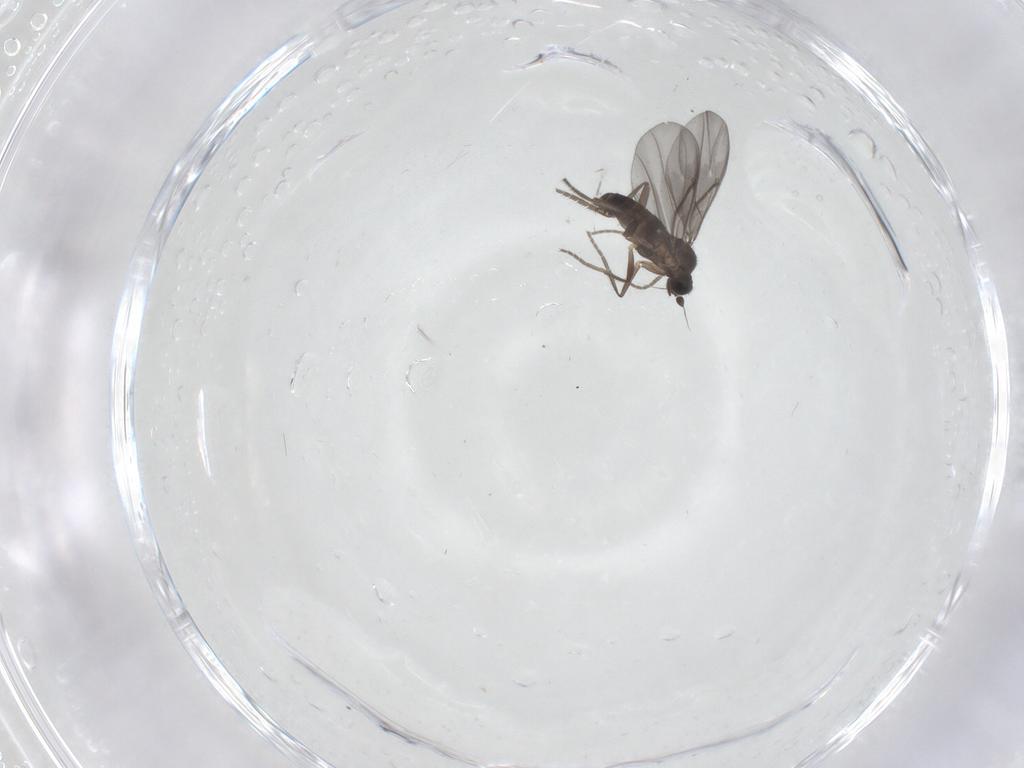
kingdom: Animalia
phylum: Arthropoda
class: Insecta
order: Diptera
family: Phoridae
